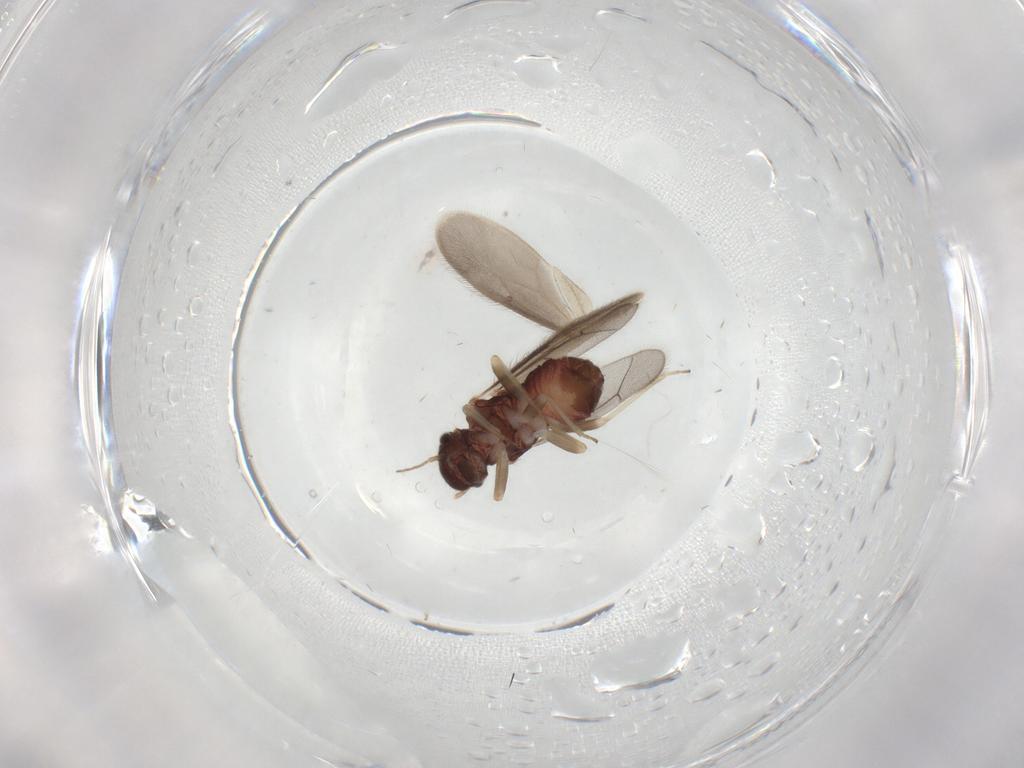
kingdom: Animalia
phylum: Arthropoda
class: Insecta
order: Psocodea
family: Archipsocidae
